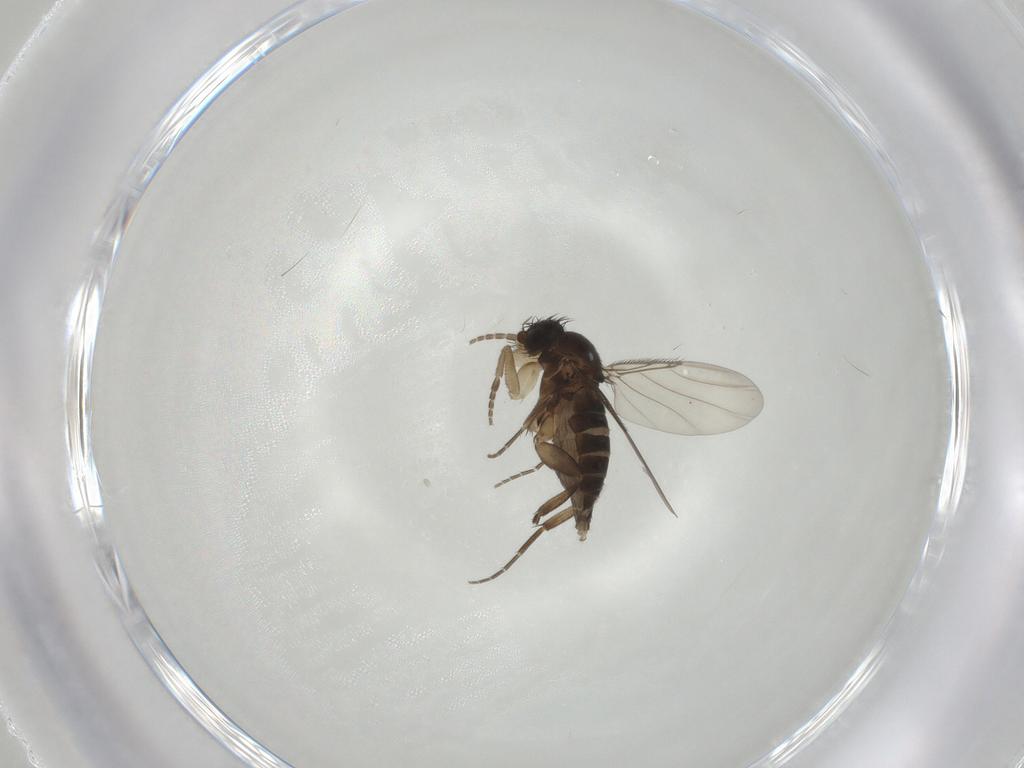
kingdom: Animalia
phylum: Arthropoda
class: Insecta
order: Diptera
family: Phoridae
